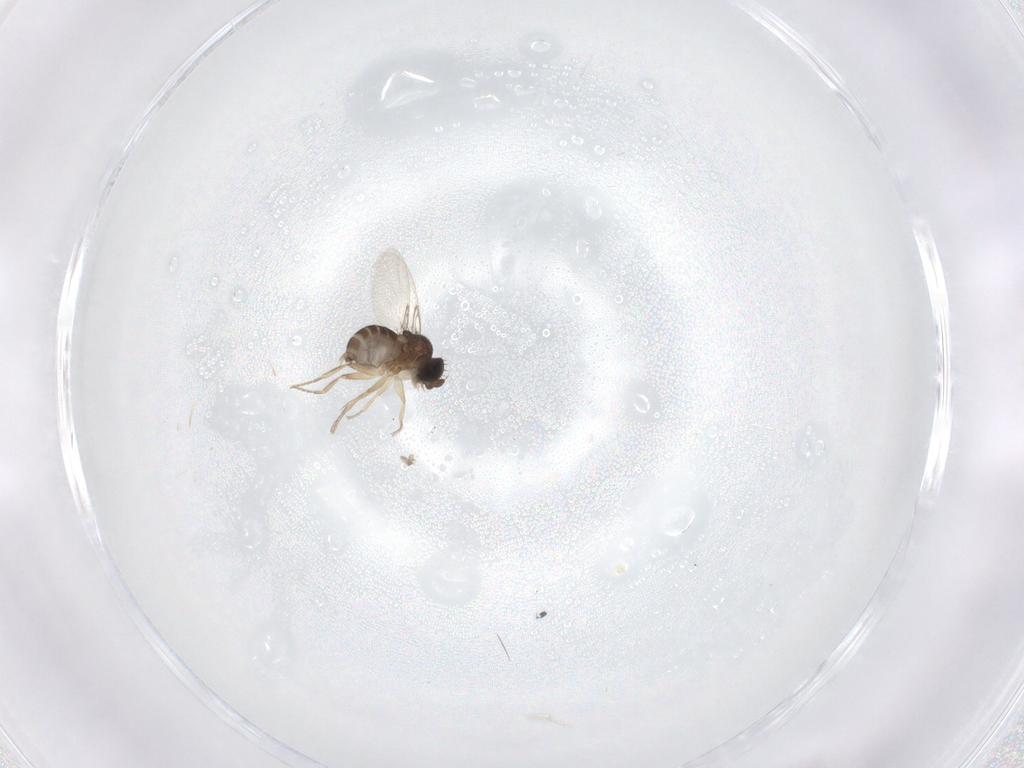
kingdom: Animalia
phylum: Arthropoda
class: Insecta
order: Diptera
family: Phoridae
